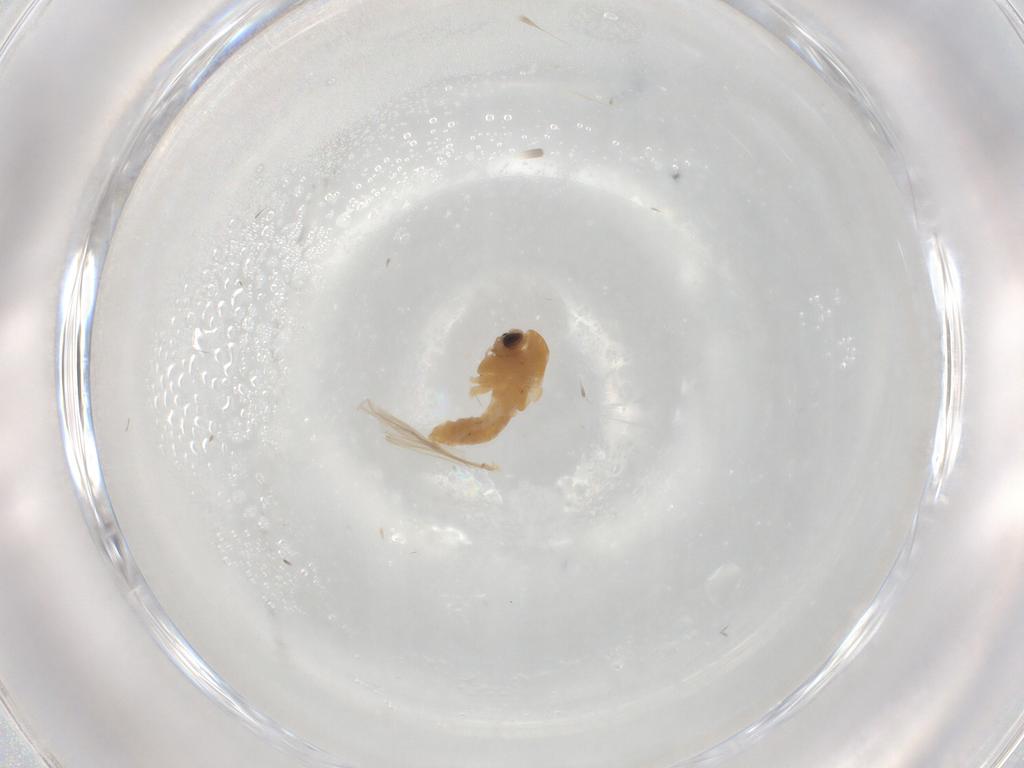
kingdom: Animalia
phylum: Arthropoda
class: Insecta
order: Diptera
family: Chironomidae
